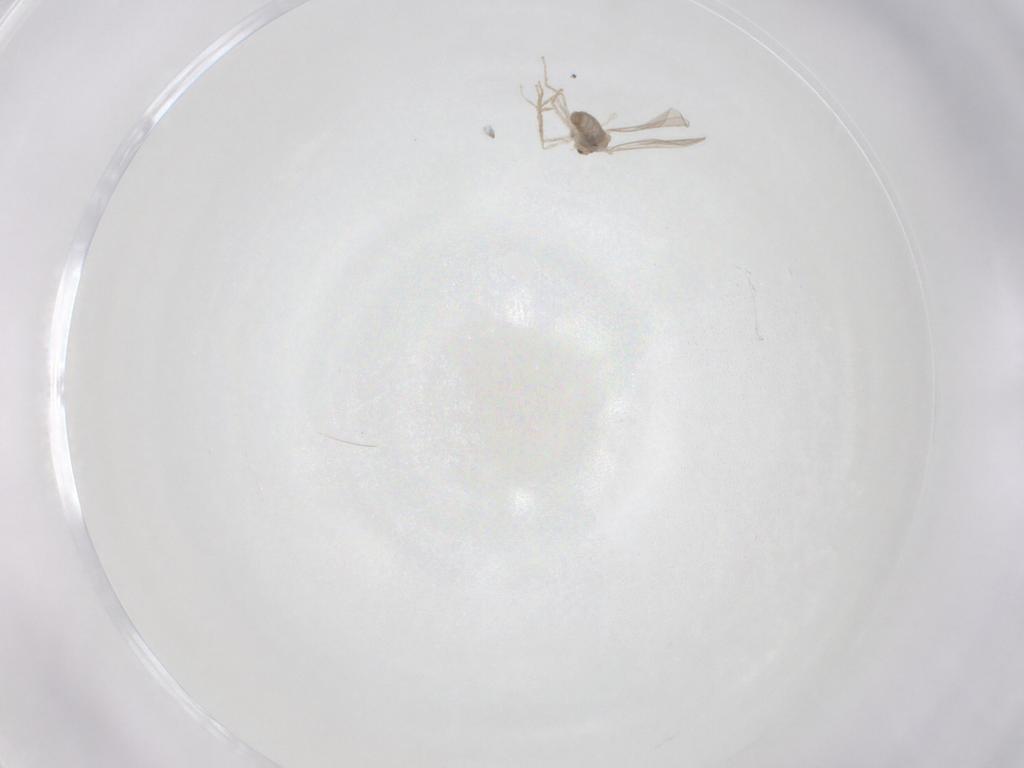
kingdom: Animalia
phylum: Arthropoda
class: Insecta
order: Diptera
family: Cecidomyiidae
